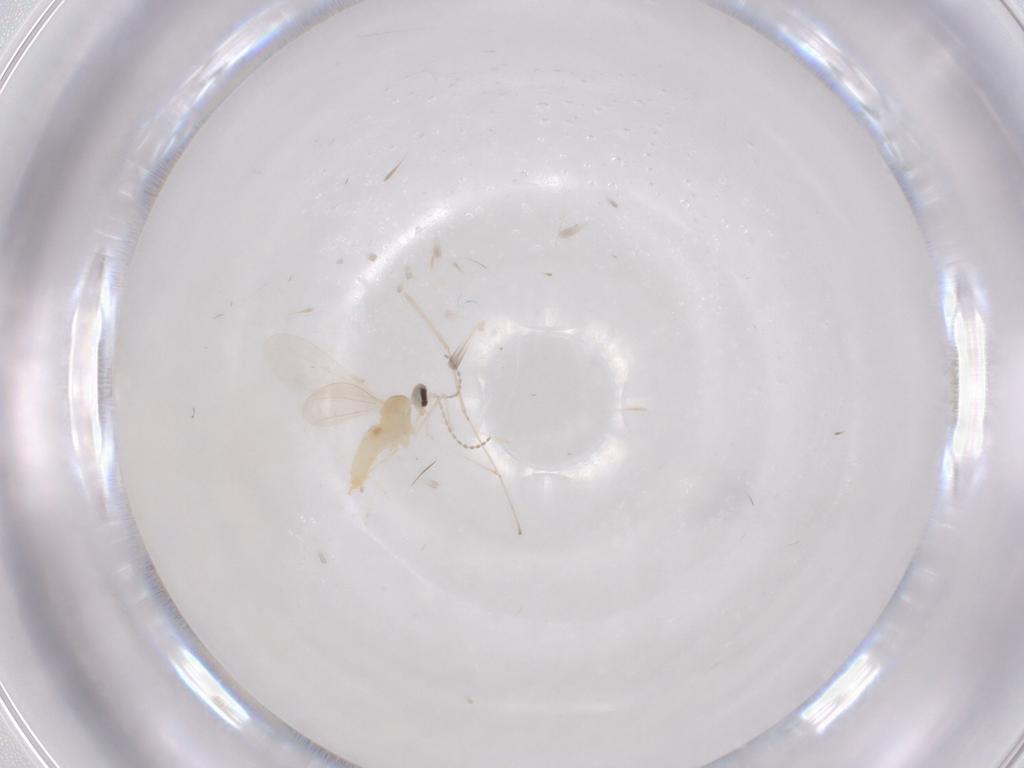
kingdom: Animalia
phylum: Arthropoda
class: Insecta
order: Diptera
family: Cecidomyiidae
